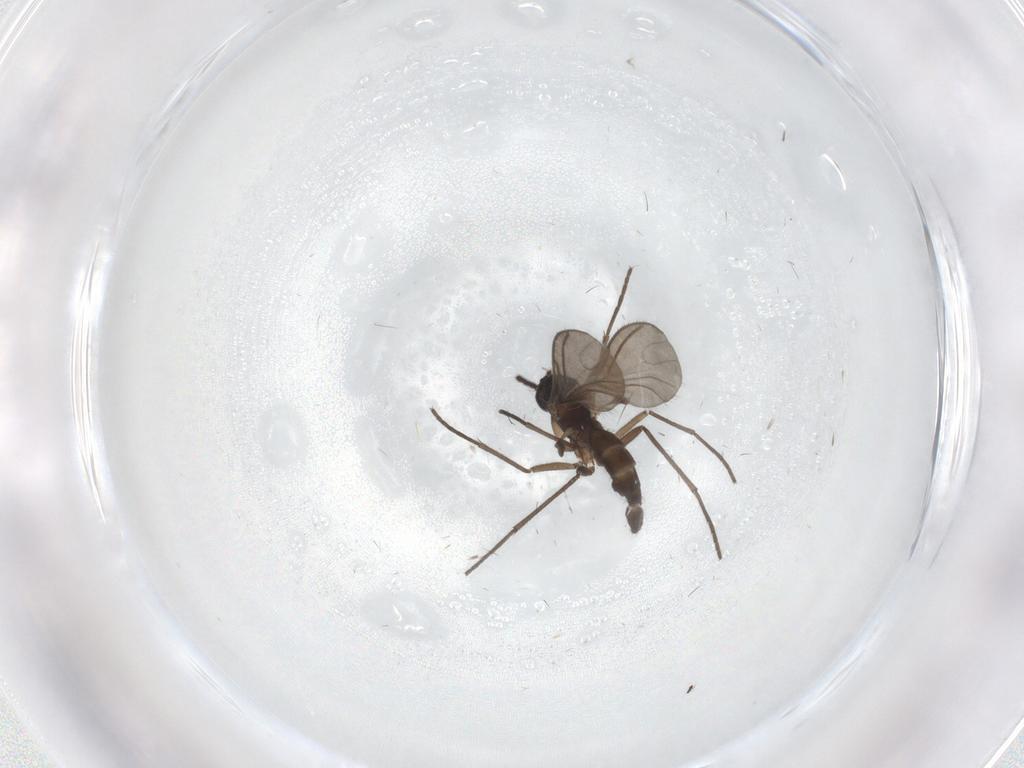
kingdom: Animalia
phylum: Arthropoda
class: Insecta
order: Diptera
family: Sciaridae
